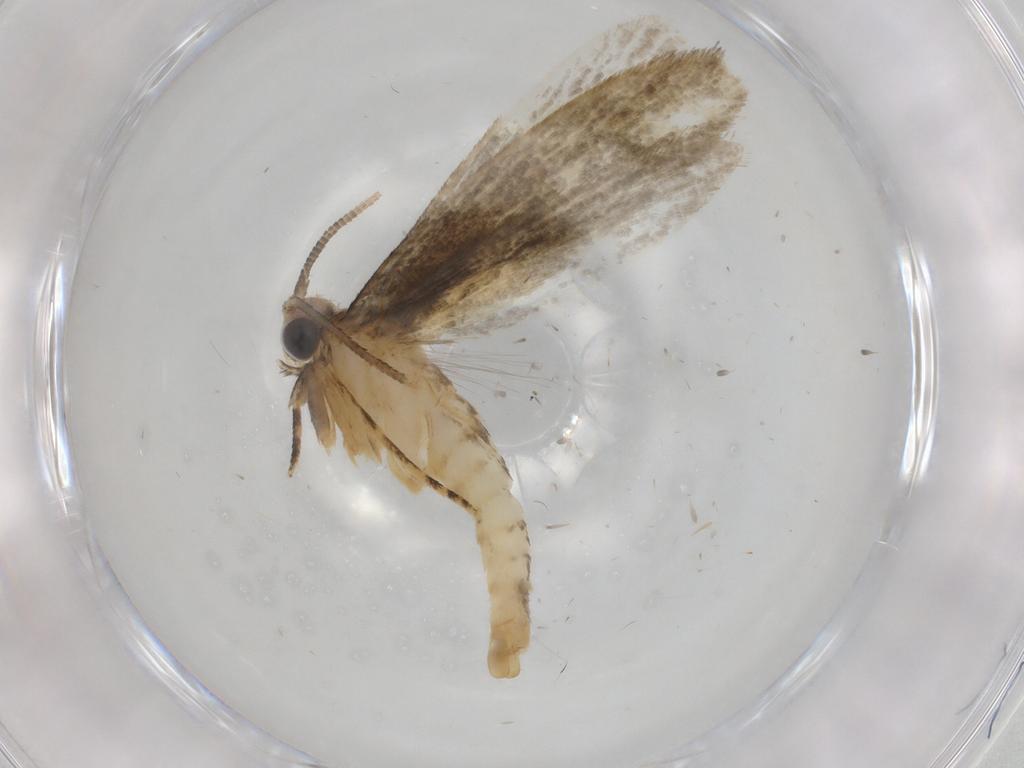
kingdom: Animalia
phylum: Arthropoda
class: Insecta
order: Lepidoptera
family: Tineidae
